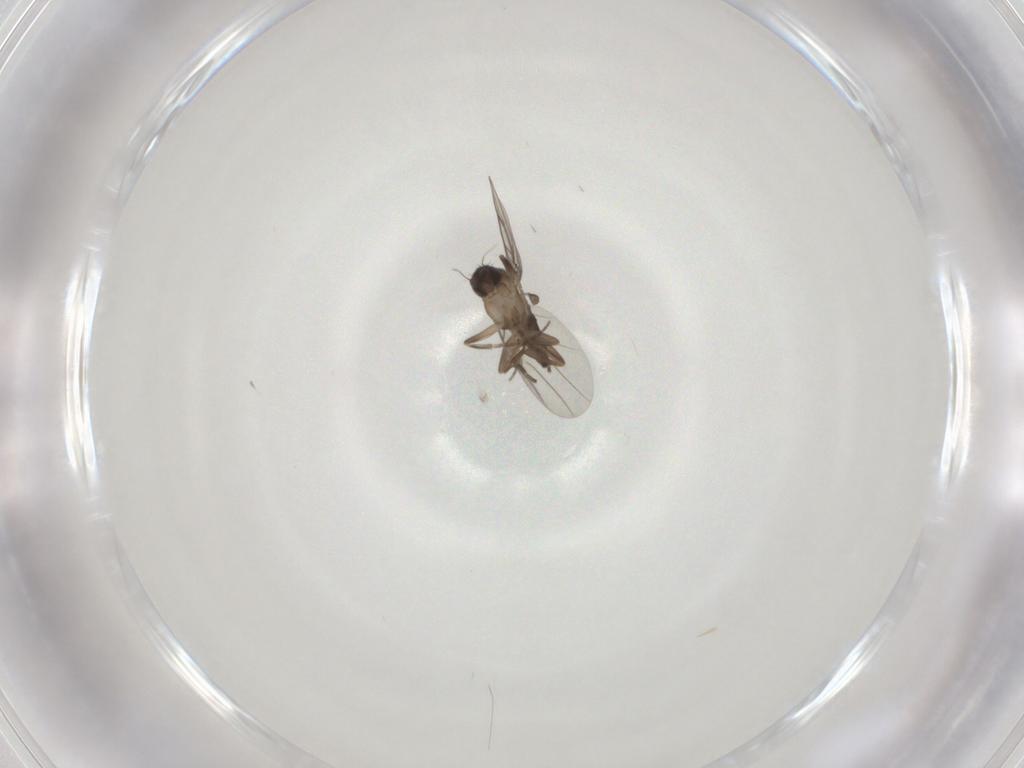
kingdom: Animalia
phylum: Arthropoda
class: Insecta
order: Diptera
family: Phoridae
